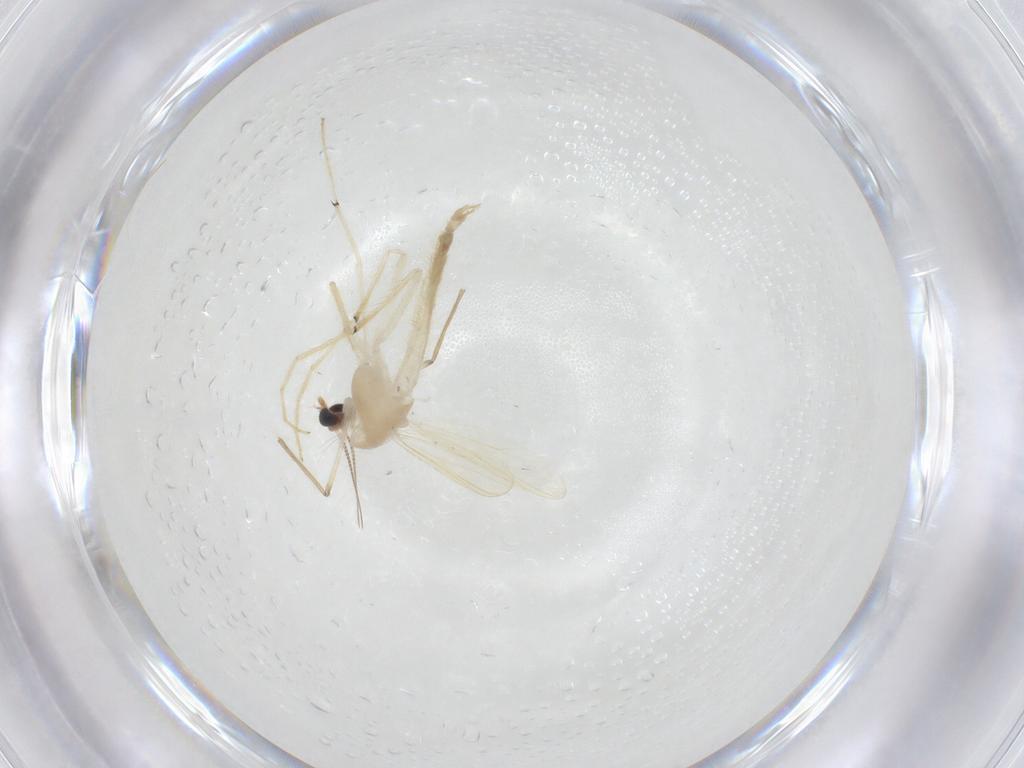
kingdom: Animalia
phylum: Arthropoda
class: Insecta
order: Diptera
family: Chironomidae
